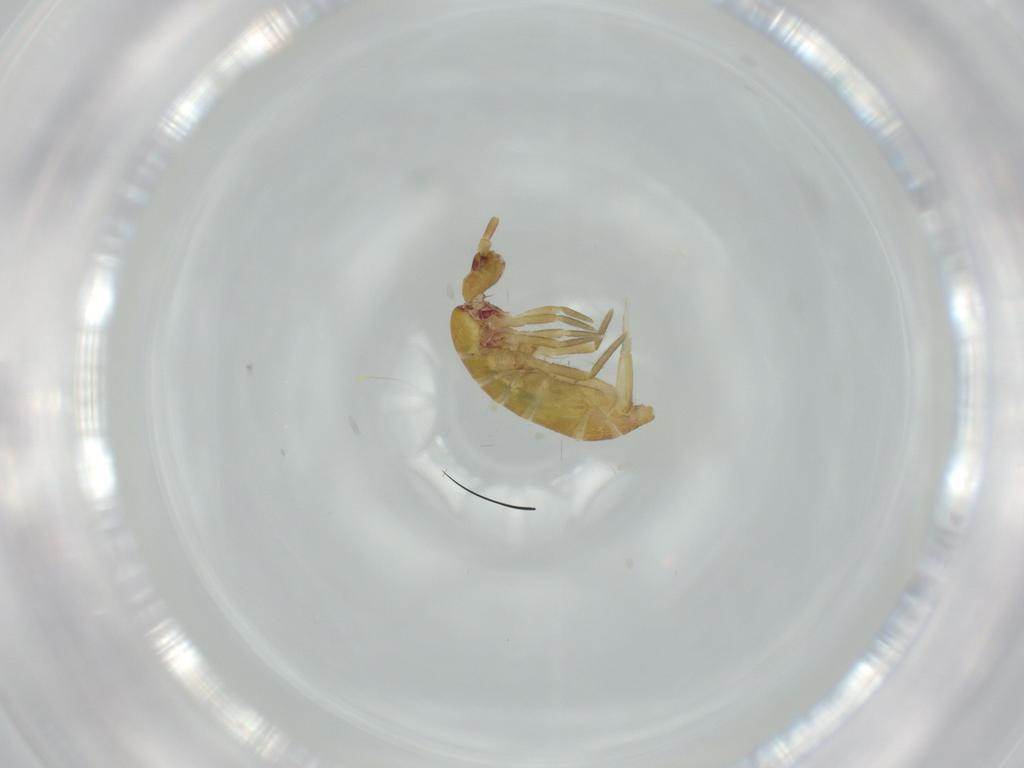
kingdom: Animalia
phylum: Arthropoda
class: Collembola
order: Entomobryomorpha
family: Tomoceridae
